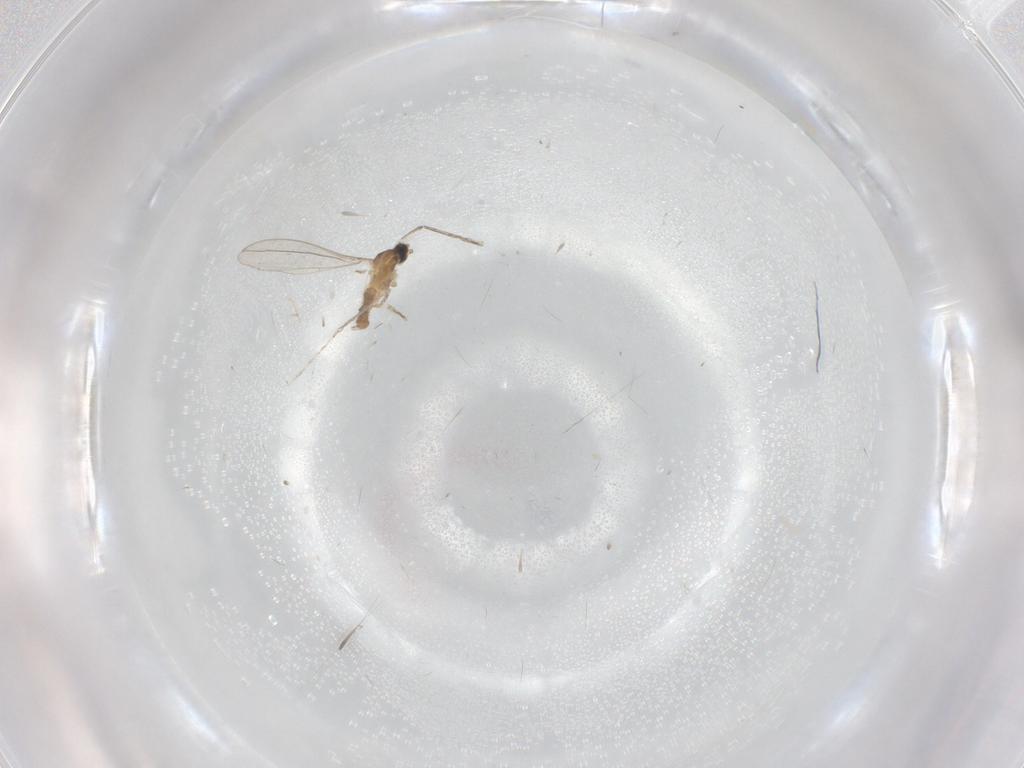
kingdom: Animalia
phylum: Arthropoda
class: Insecta
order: Diptera
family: Cecidomyiidae
